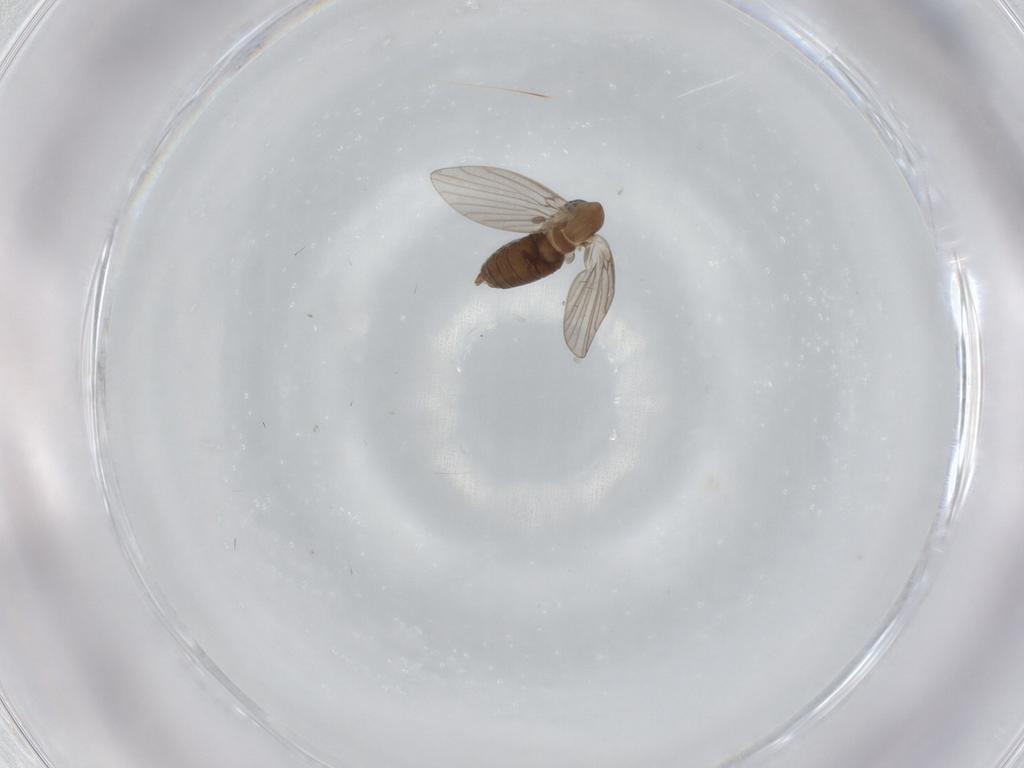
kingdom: Animalia
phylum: Arthropoda
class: Insecta
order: Diptera
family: Psychodidae
